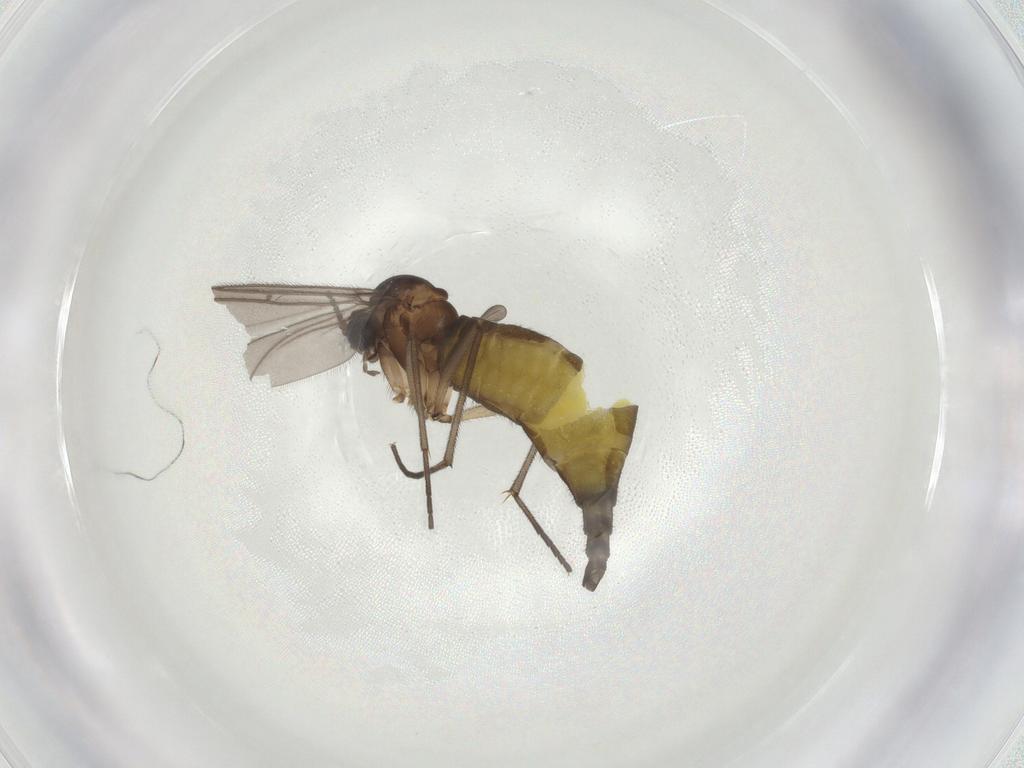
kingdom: Animalia
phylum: Arthropoda
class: Insecta
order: Diptera
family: Sciaridae
